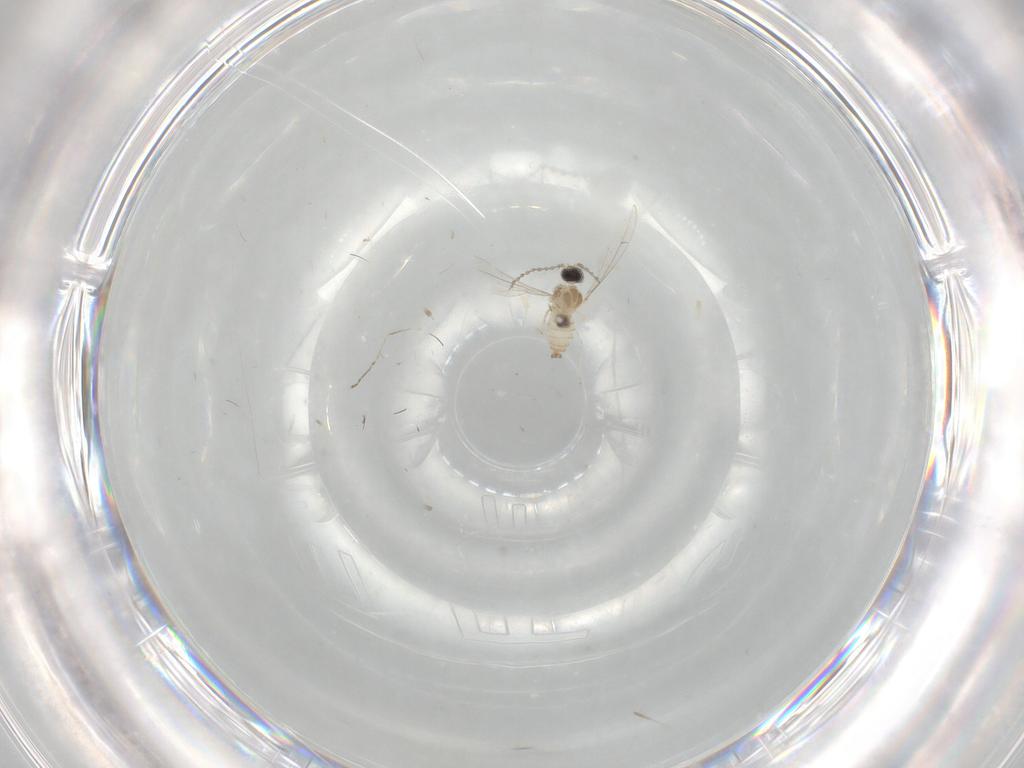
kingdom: Animalia
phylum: Arthropoda
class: Insecta
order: Diptera
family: Cecidomyiidae
